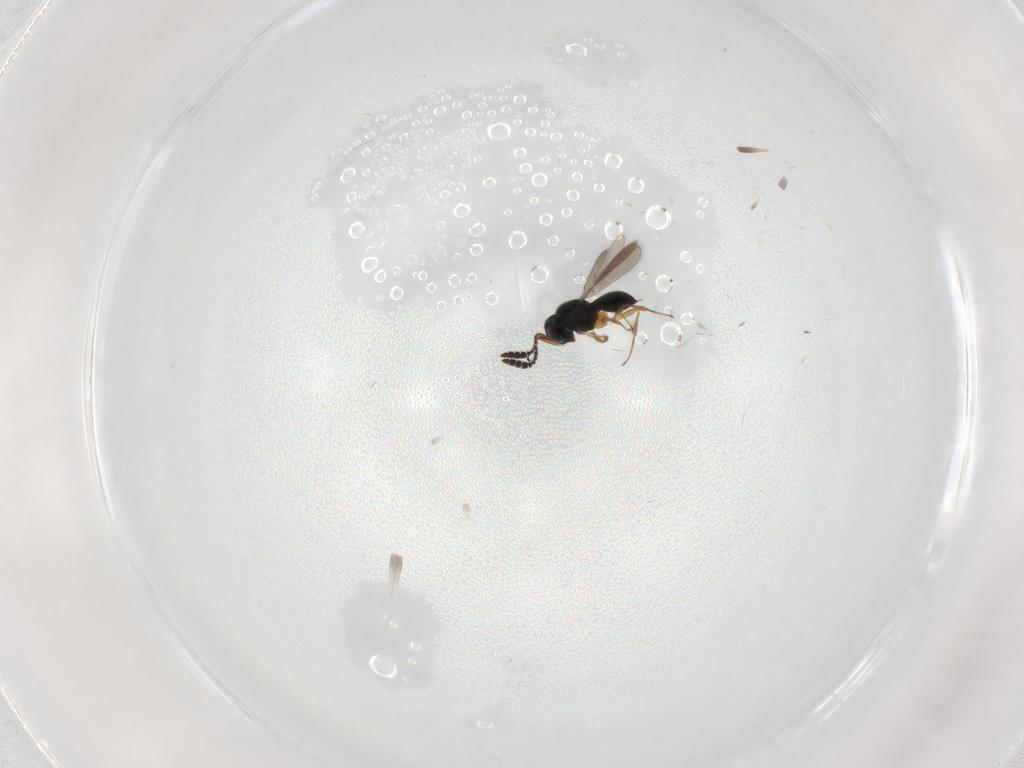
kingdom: Animalia
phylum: Arthropoda
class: Insecta
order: Hymenoptera
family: Scelionidae
